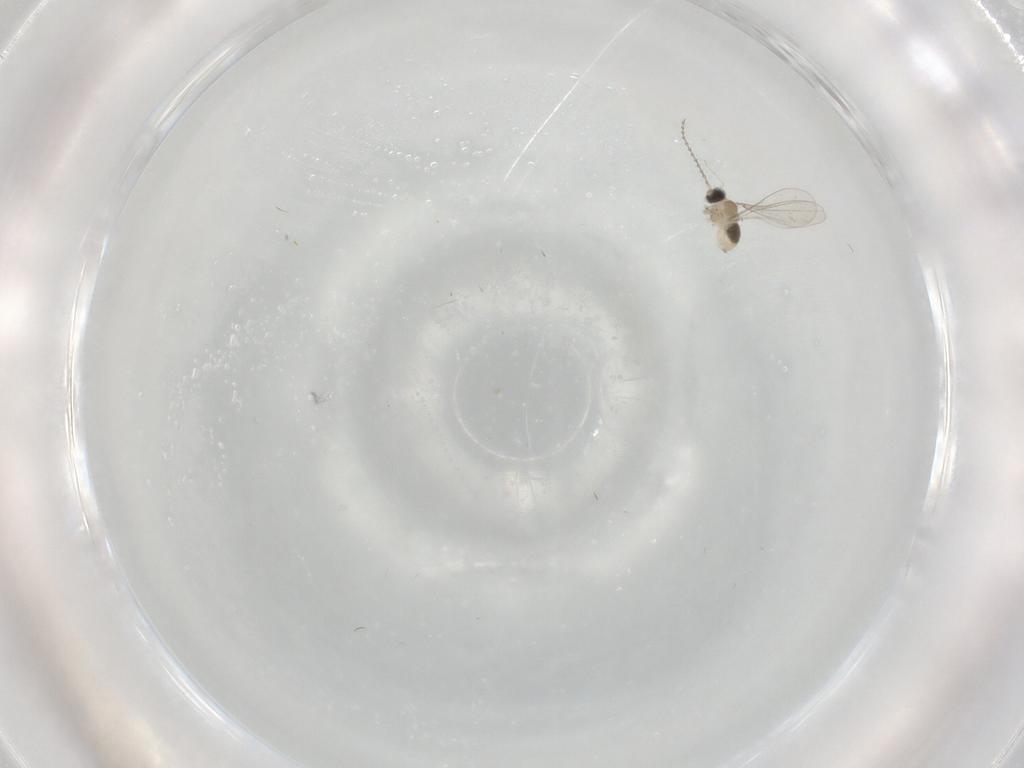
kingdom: Animalia
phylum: Arthropoda
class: Insecta
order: Diptera
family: Cecidomyiidae
